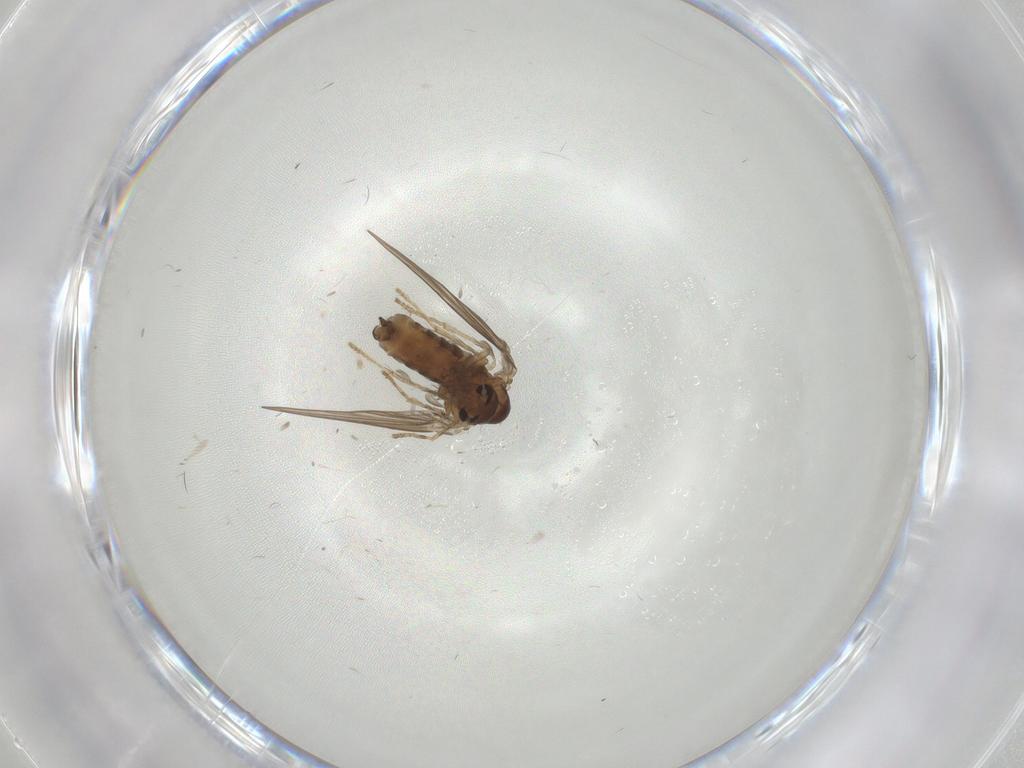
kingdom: Animalia
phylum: Arthropoda
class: Insecta
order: Diptera
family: Psychodidae
